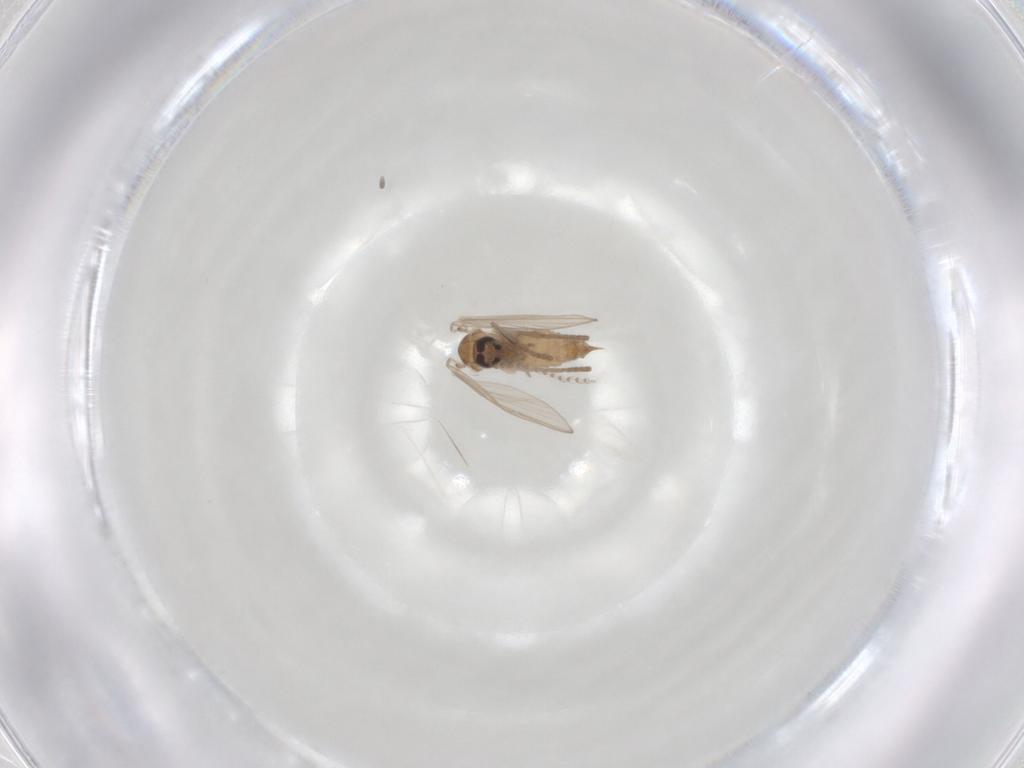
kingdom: Animalia
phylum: Arthropoda
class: Insecta
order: Diptera
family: Psychodidae
